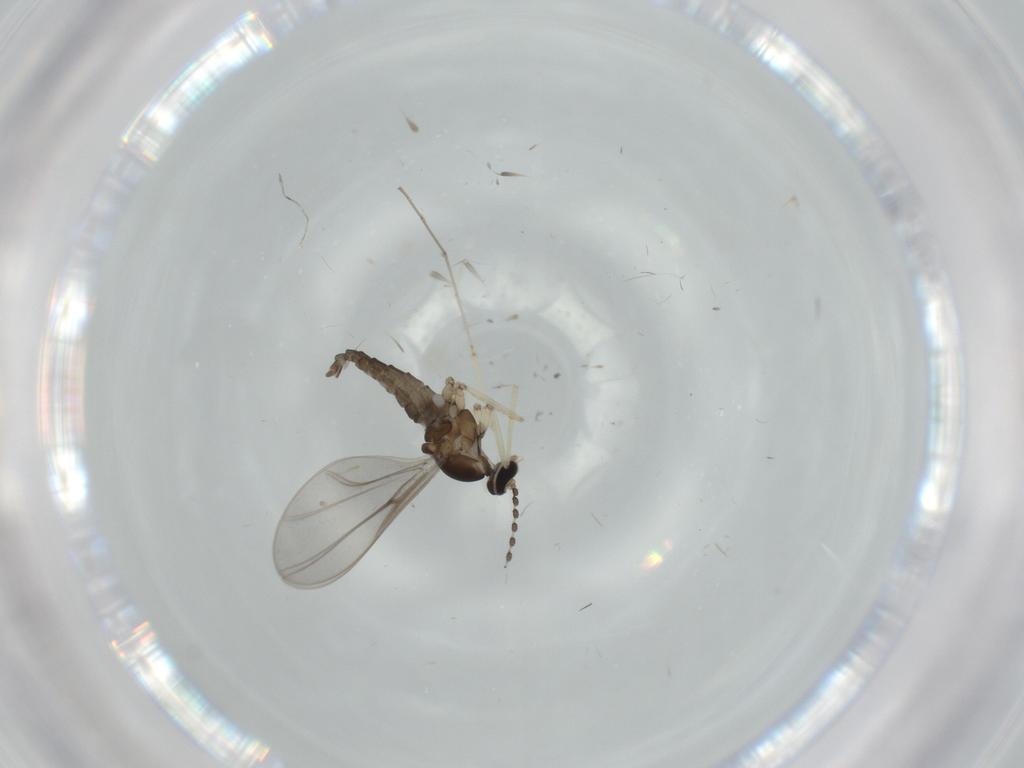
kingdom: Animalia
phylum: Arthropoda
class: Insecta
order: Diptera
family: Cecidomyiidae
